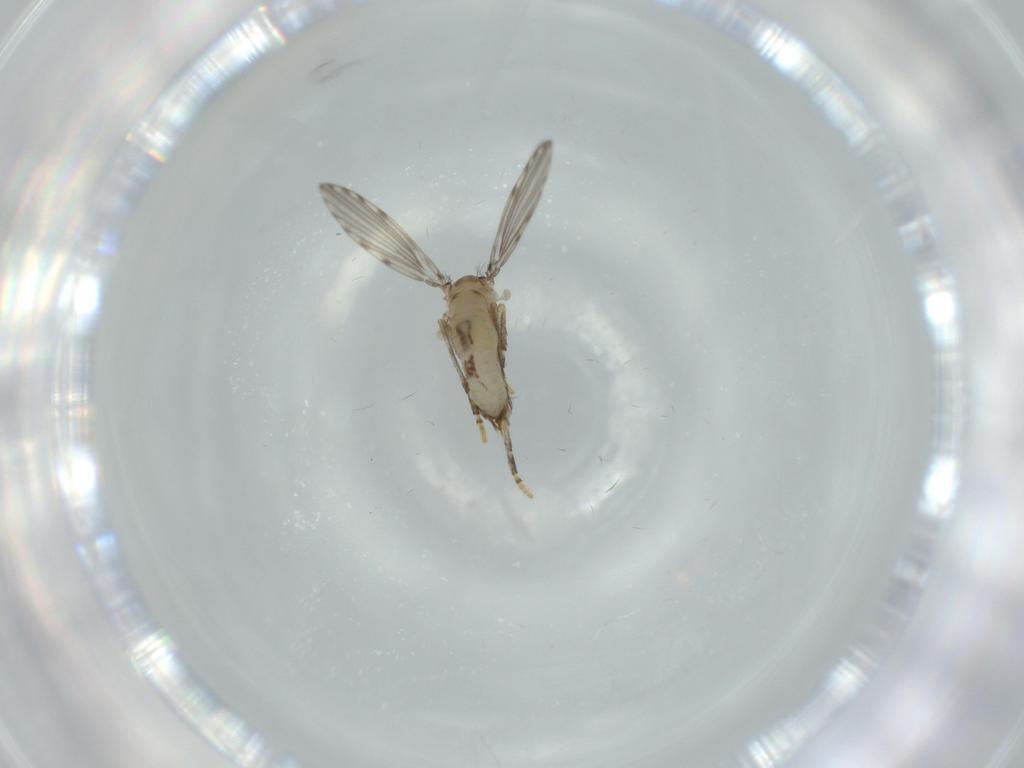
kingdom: Animalia
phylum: Arthropoda
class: Insecta
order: Diptera
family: Psychodidae
